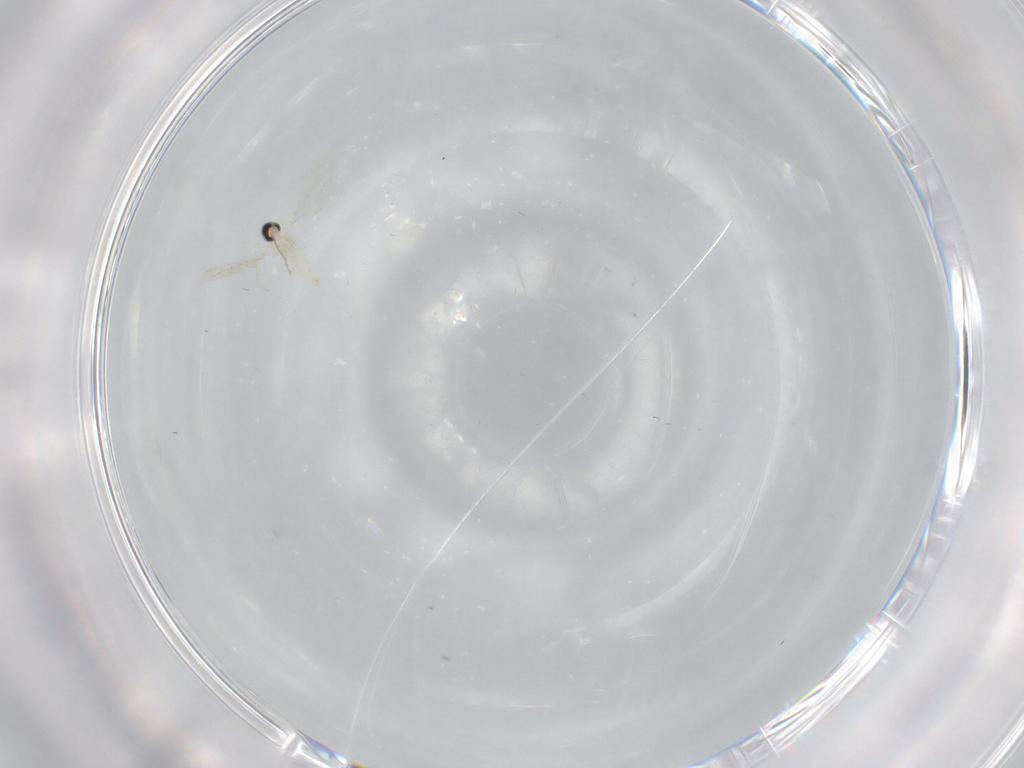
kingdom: Animalia
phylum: Arthropoda
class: Insecta
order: Diptera
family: Cecidomyiidae
